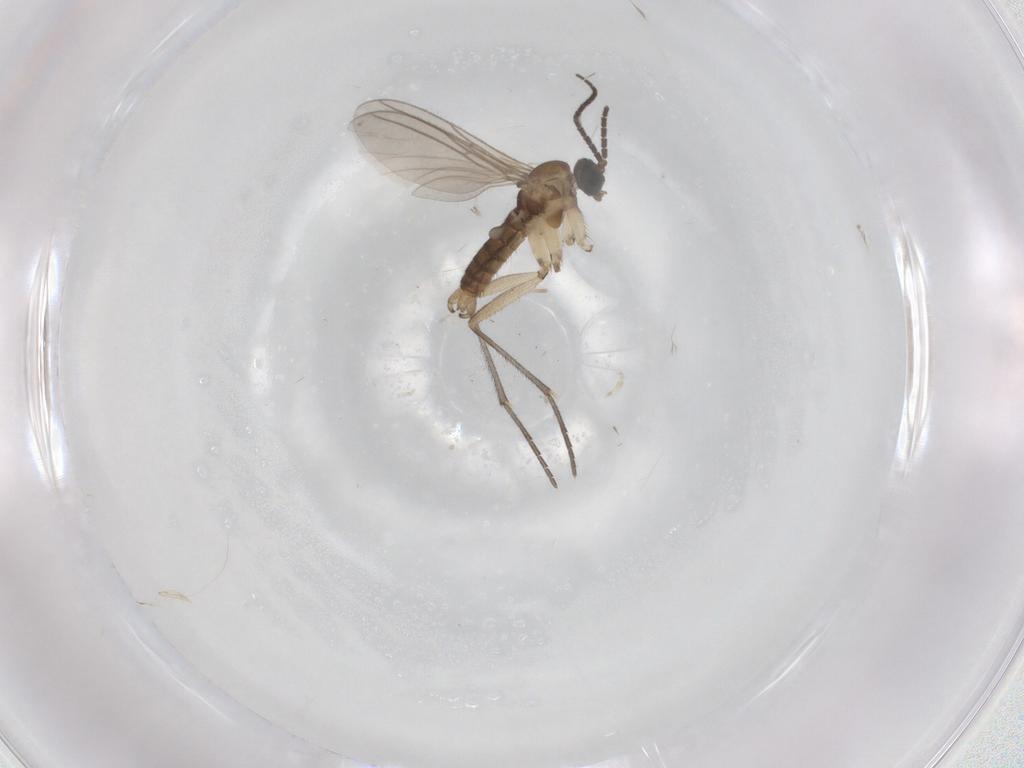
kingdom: Animalia
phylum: Arthropoda
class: Insecta
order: Diptera
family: Sciaridae
